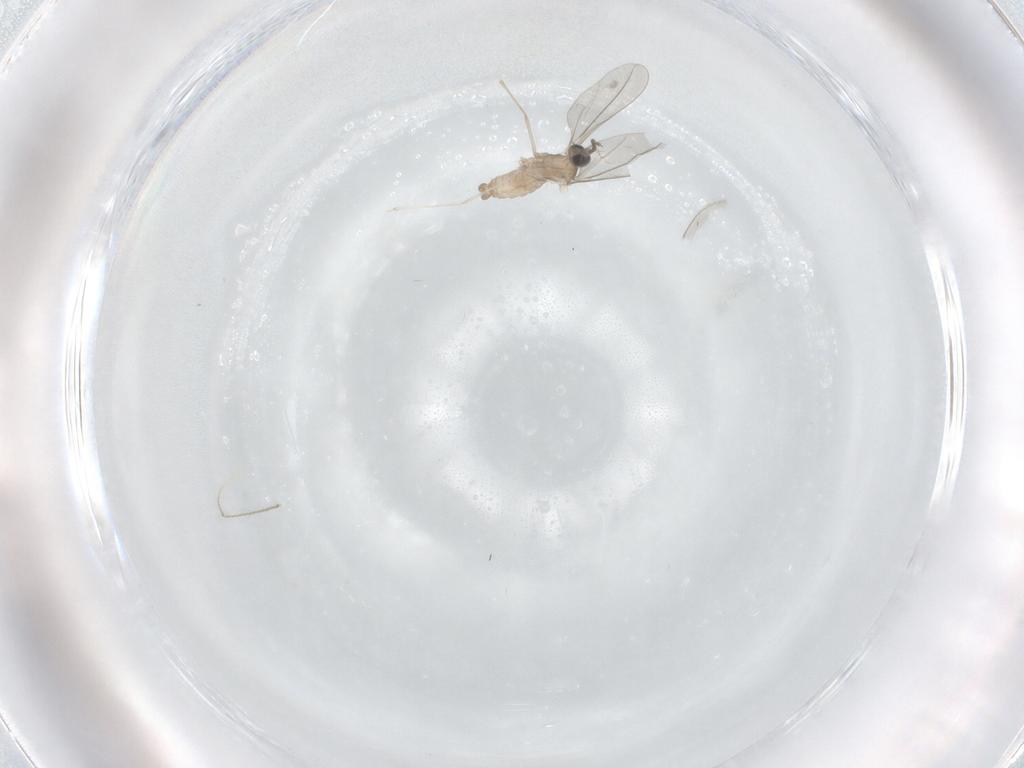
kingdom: Animalia
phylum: Arthropoda
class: Insecta
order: Diptera
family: Cecidomyiidae
